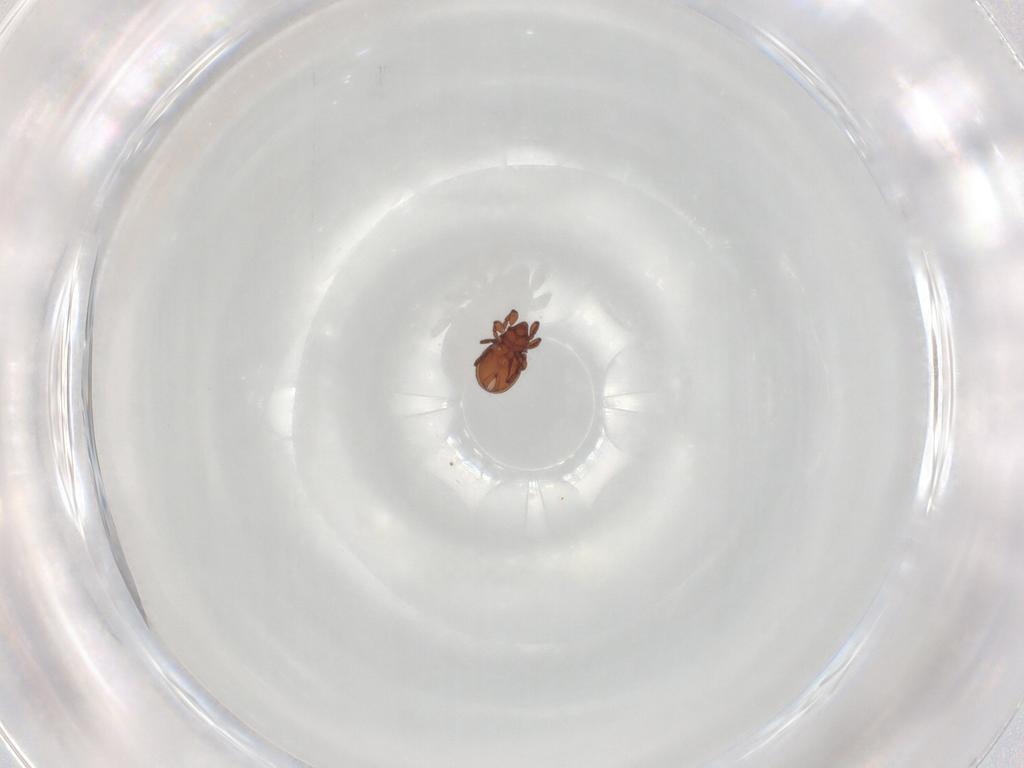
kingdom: Animalia
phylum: Arthropoda
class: Arachnida
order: Sarcoptiformes
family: Eremaeidae
